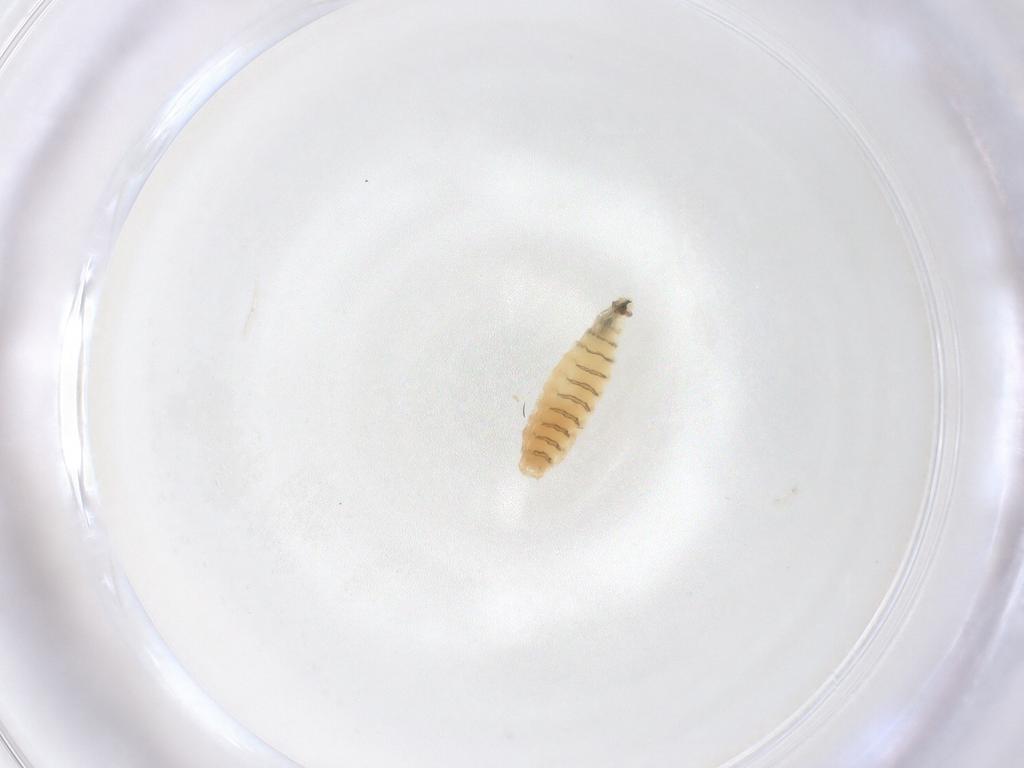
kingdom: Animalia
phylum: Arthropoda
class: Insecta
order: Diptera
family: Sarcophagidae
